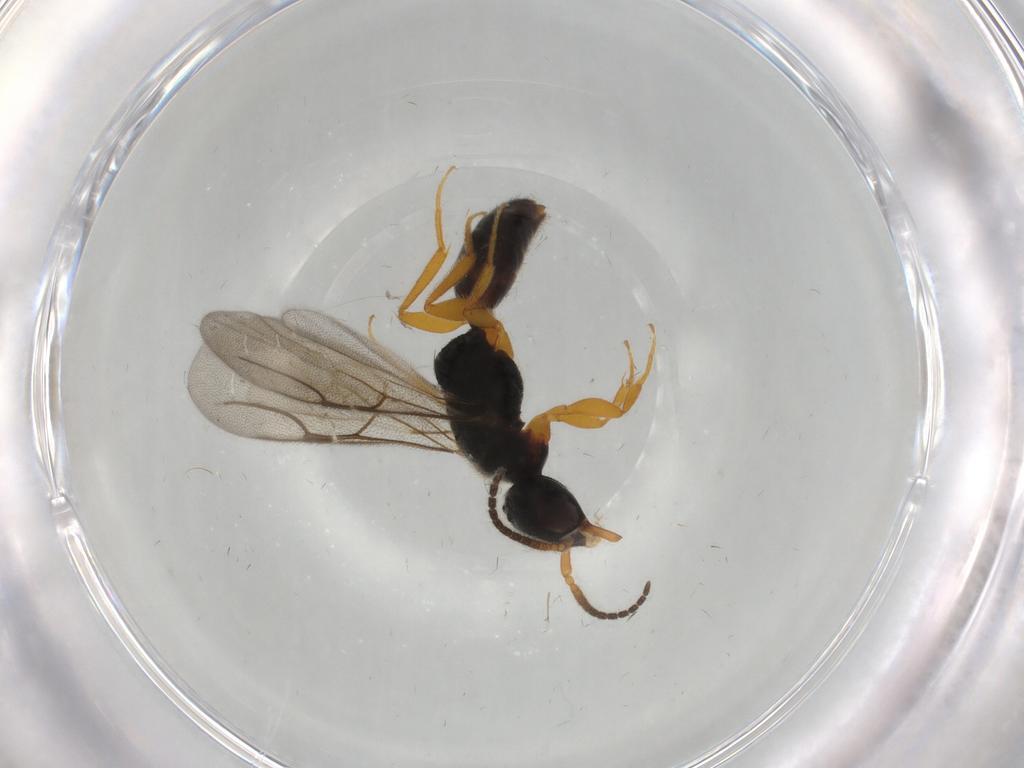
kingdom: Animalia
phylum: Arthropoda
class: Insecta
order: Hymenoptera
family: Bethylidae
